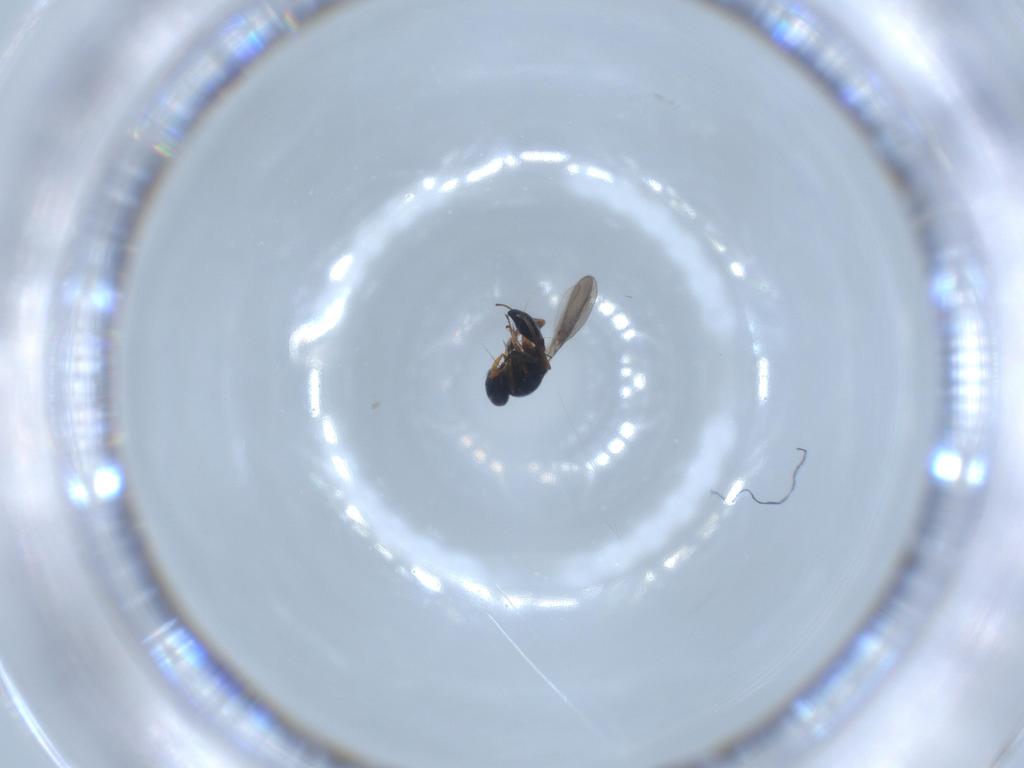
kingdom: Animalia
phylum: Arthropoda
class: Insecta
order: Hymenoptera
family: Platygastridae
